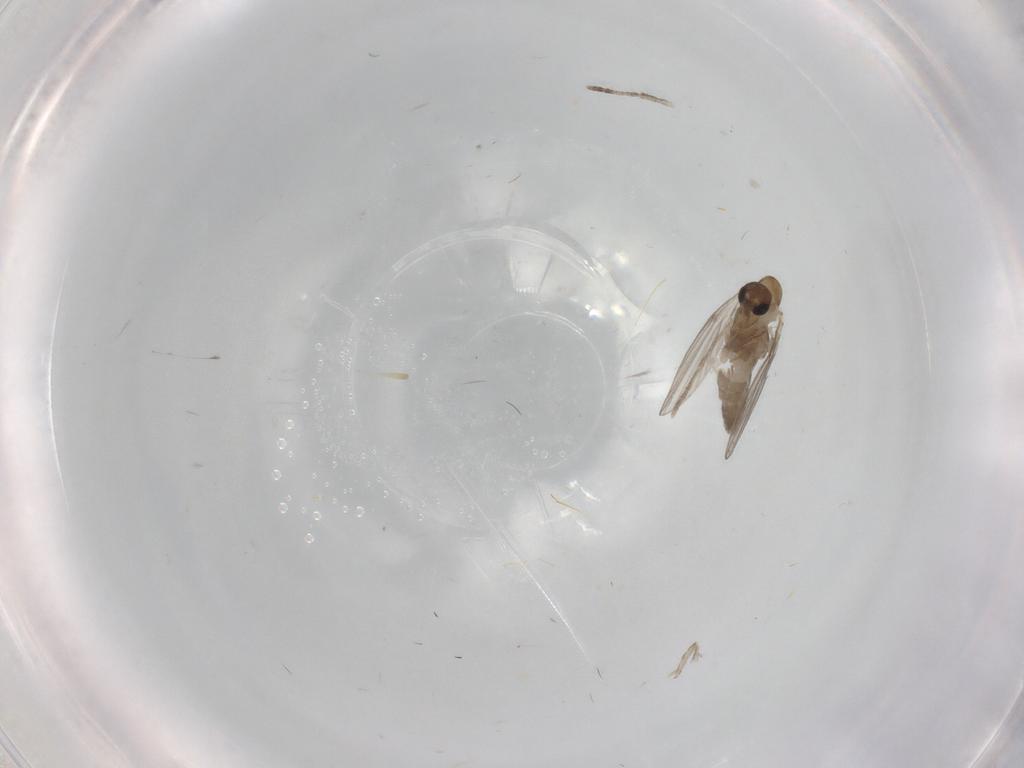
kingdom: Animalia
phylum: Arthropoda
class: Insecta
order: Diptera
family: Psychodidae
